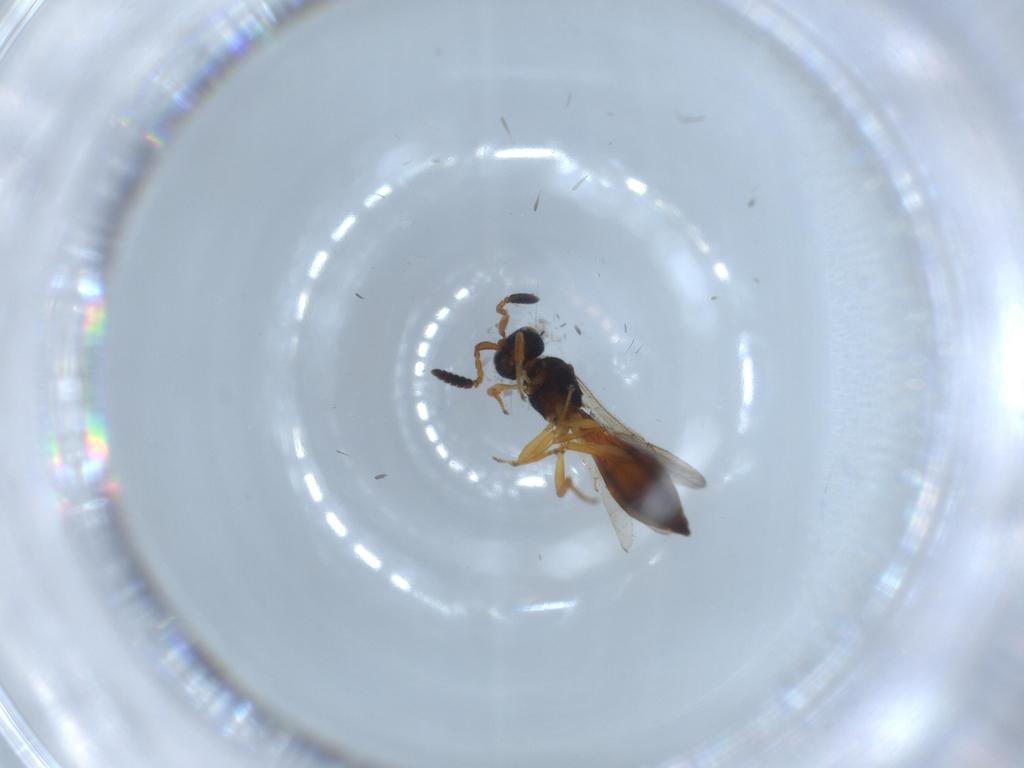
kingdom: Animalia
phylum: Arthropoda
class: Insecta
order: Hymenoptera
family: Scelionidae
